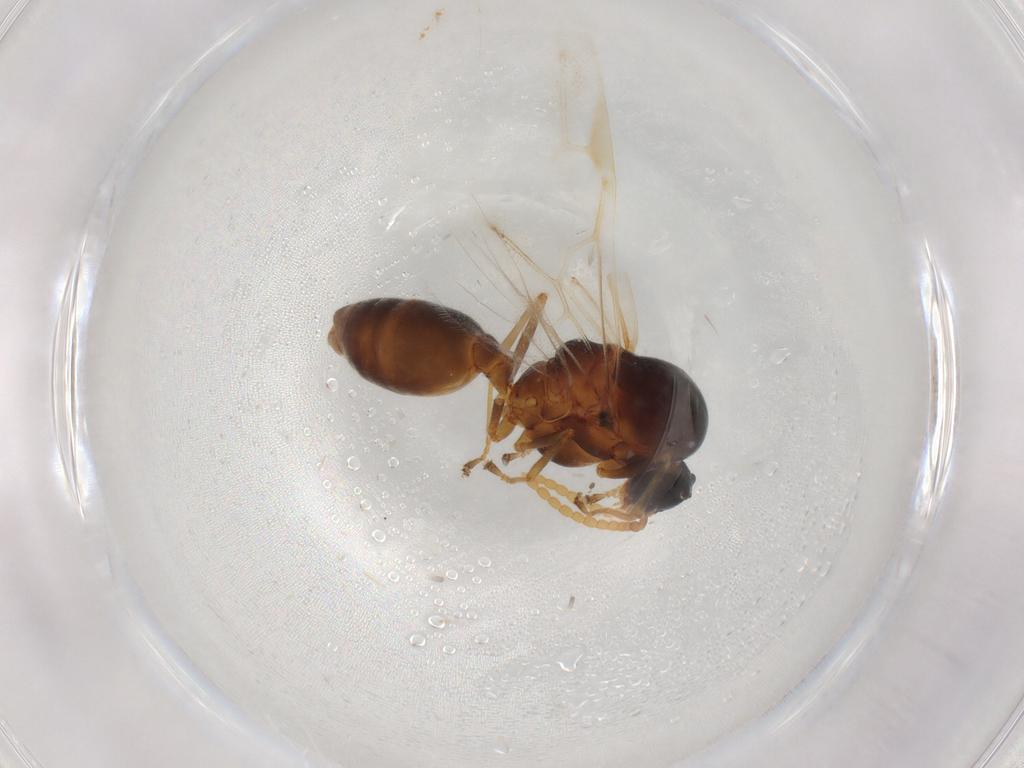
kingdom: Animalia
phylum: Arthropoda
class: Insecta
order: Hymenoptera
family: Formicidae
